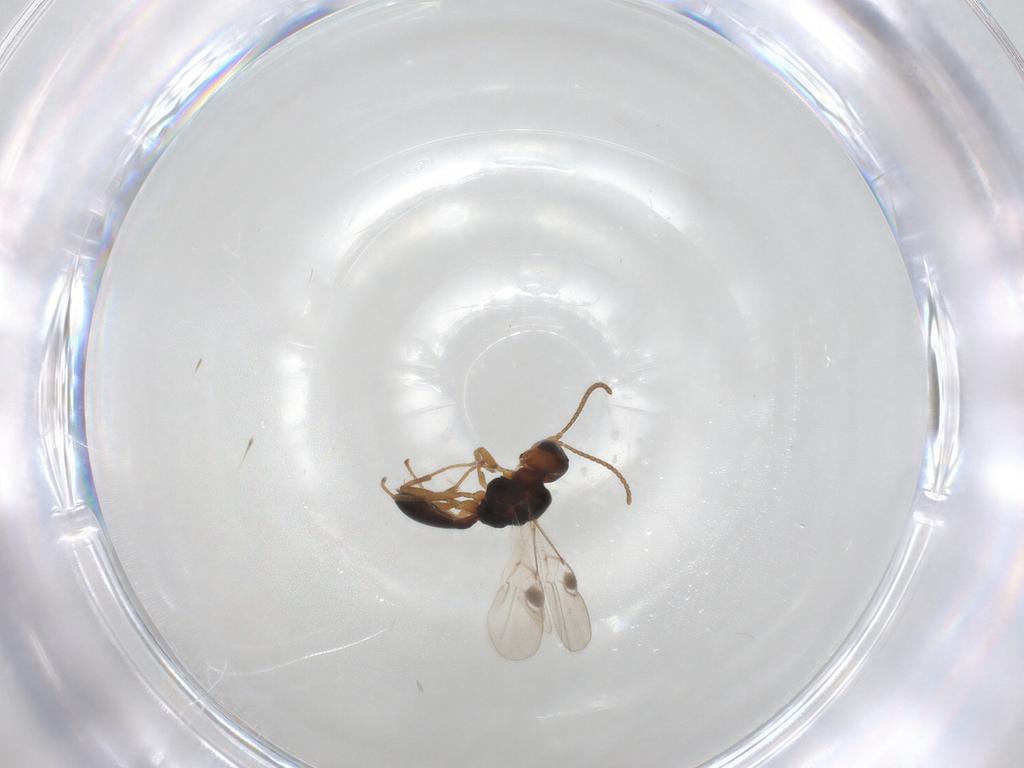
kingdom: Animalia
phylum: Arthropoda
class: Insecta
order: Hymenoptera
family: Braconidae
